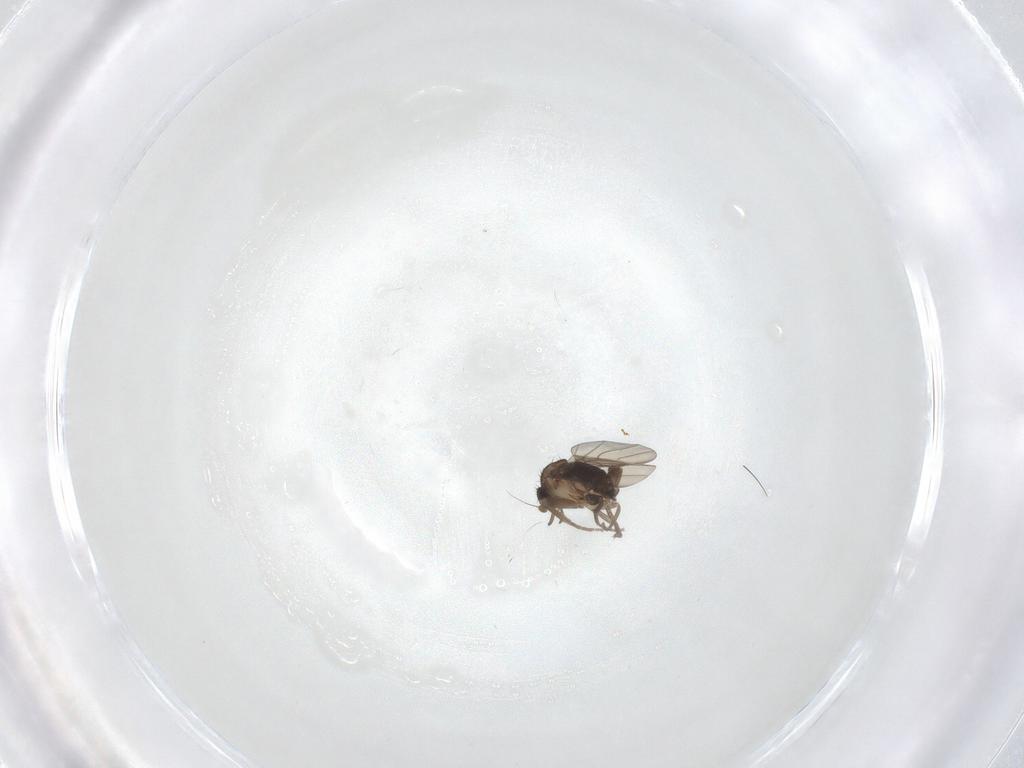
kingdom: Animalia
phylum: Arthropoda
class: Insecta
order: Diptera
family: Phoridae
